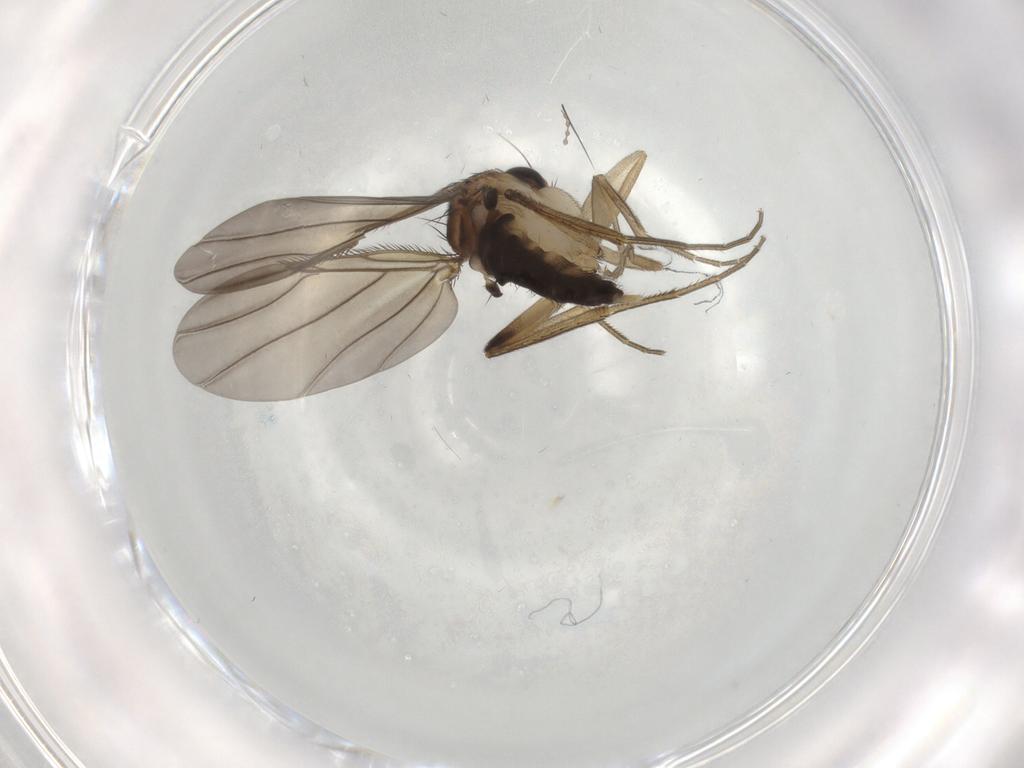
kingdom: Animalia
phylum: Arthropoda
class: Insecta
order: Diptera
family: Phoridae
